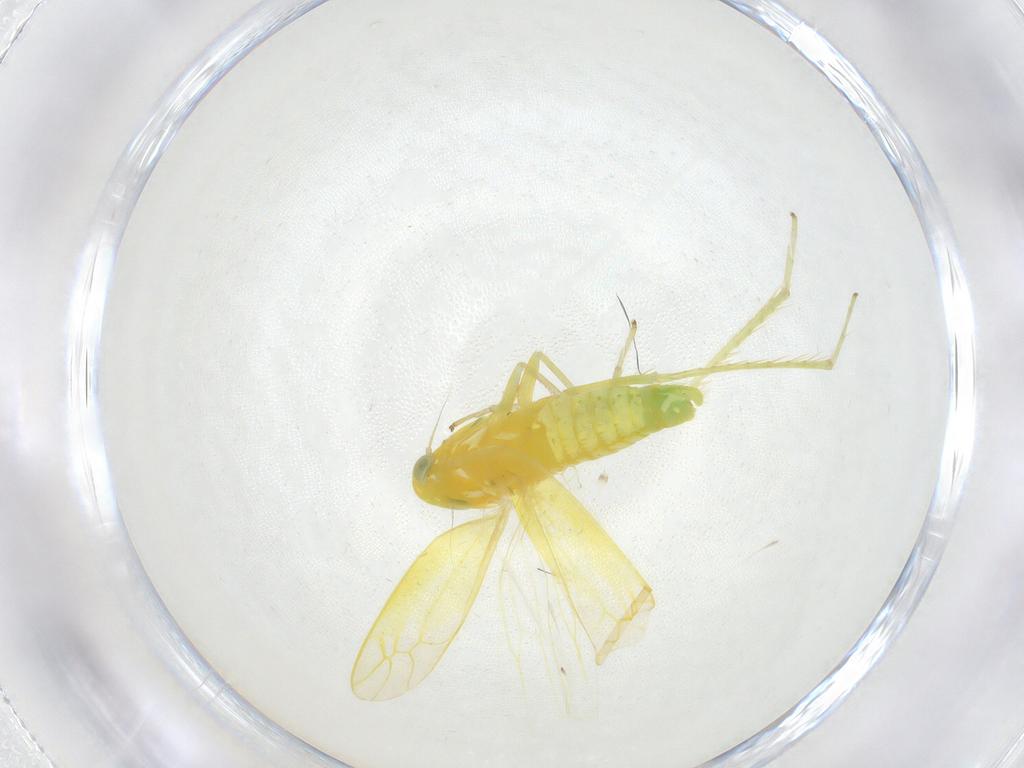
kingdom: Animalia
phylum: Arthropoda
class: Insecta
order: Hemiptera
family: Cicadellidae
